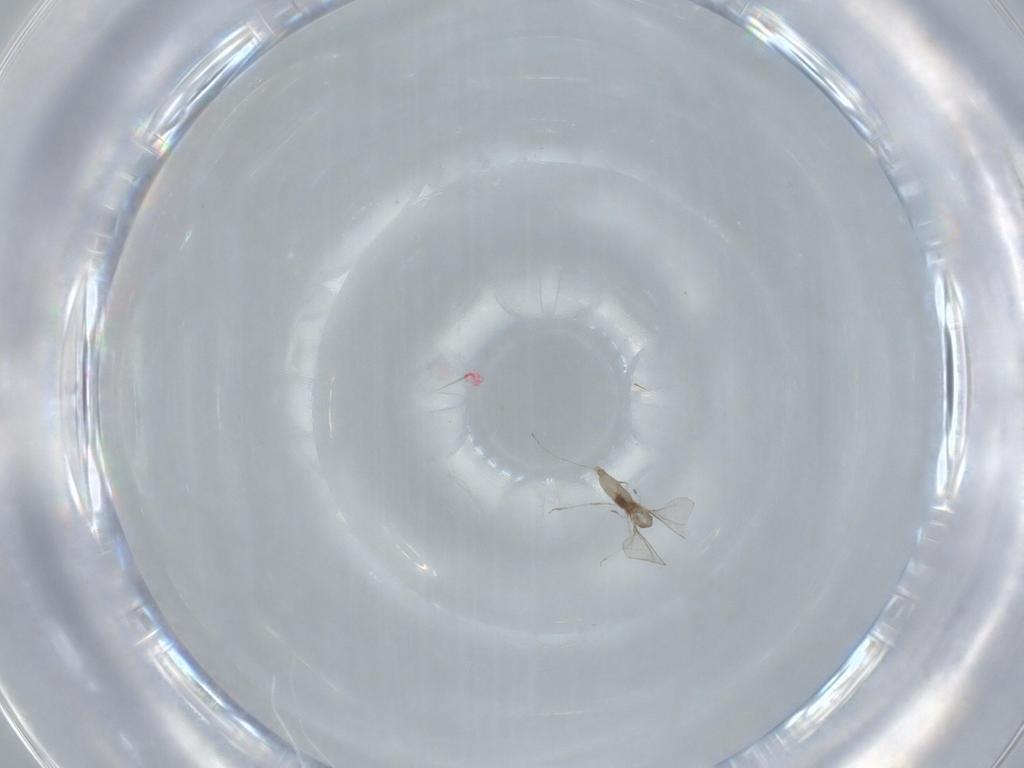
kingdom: Animalia
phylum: Arthropoda
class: Insecta
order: Diptera
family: Cecidomyiidae
